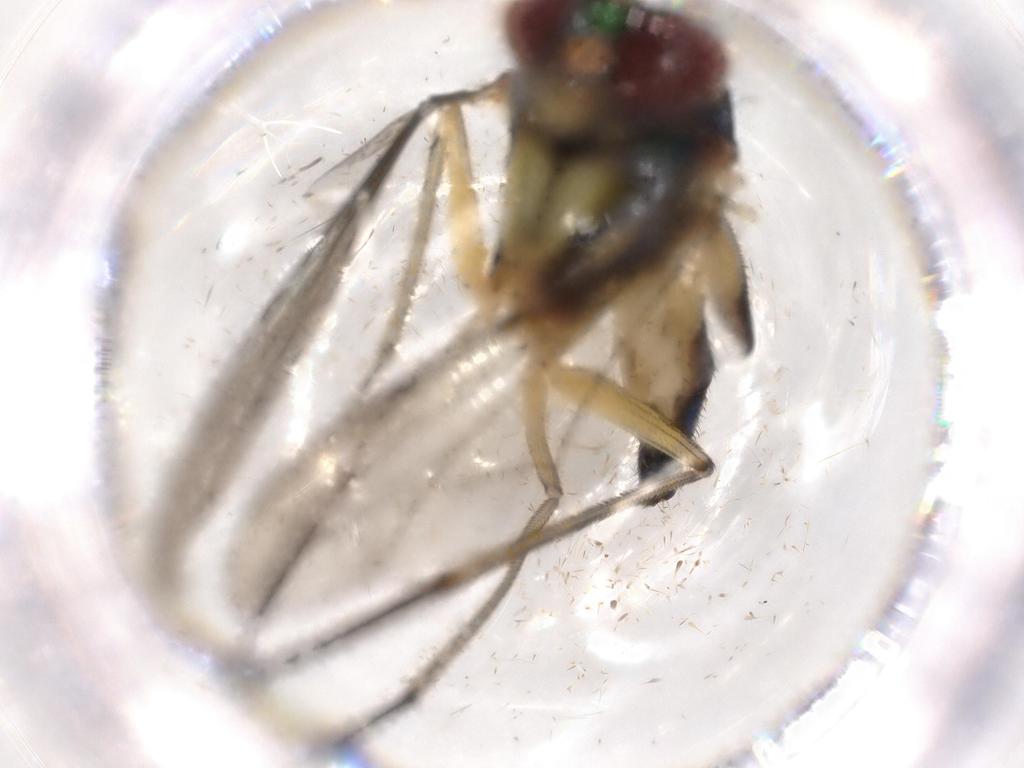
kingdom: Animalia
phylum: Arthropoda
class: Insecta
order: Diptera
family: Dolichopodidae
